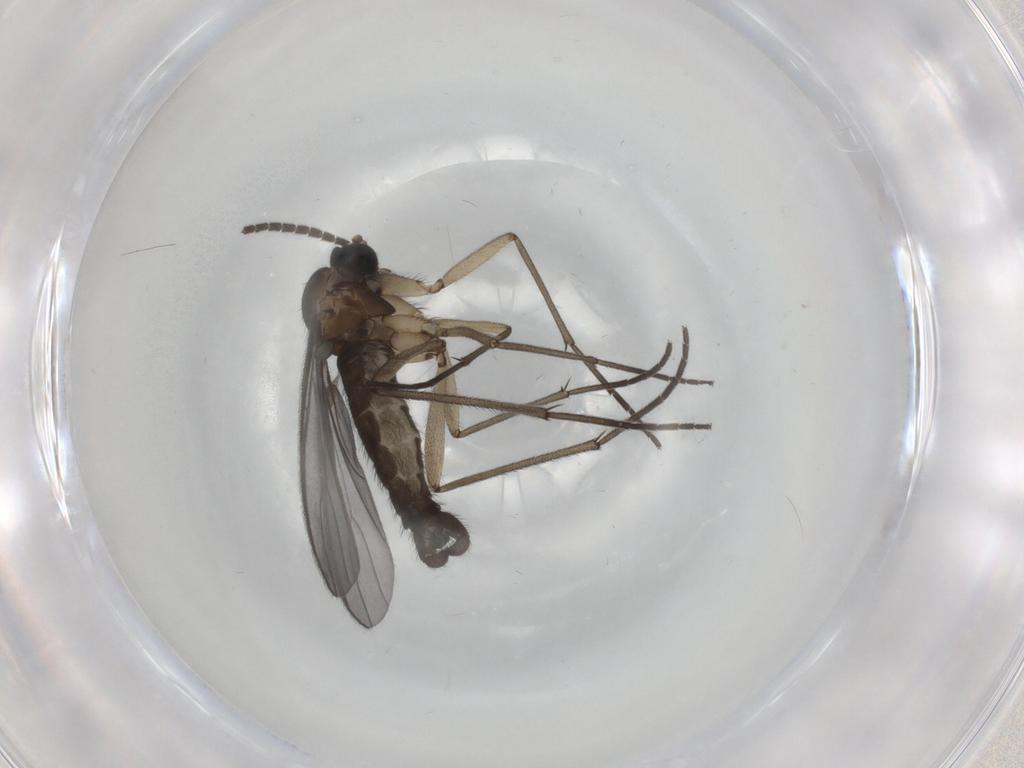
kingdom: Animalia
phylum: Arthropoda
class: Insecta
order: Diptera
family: Sciaridae
